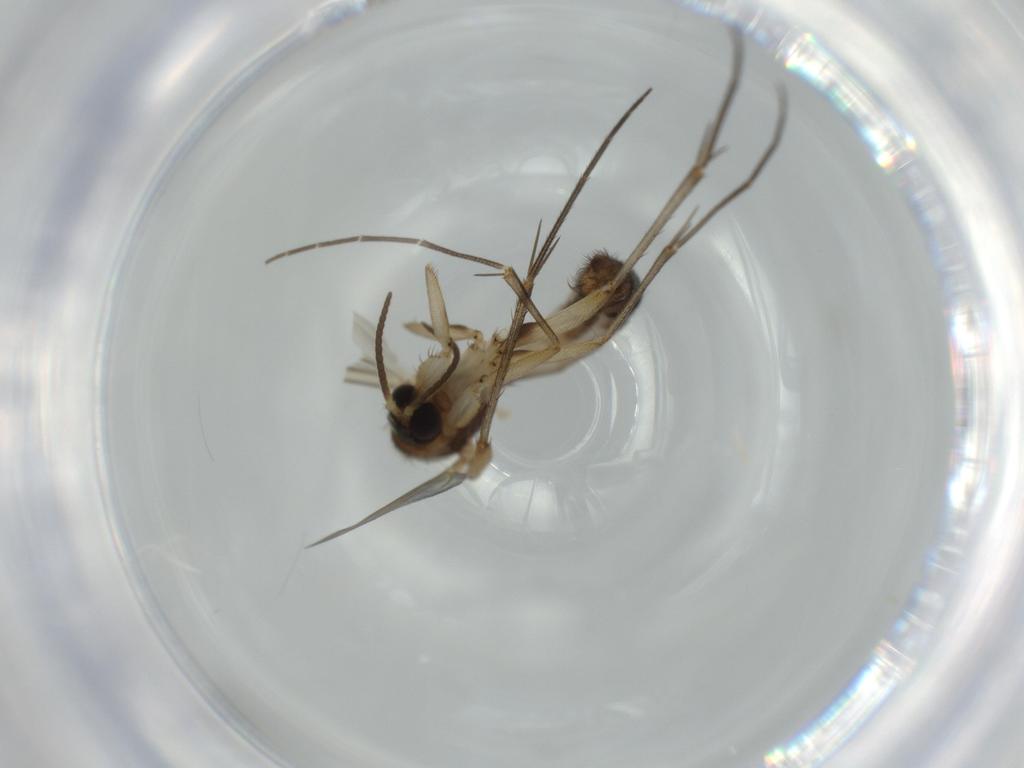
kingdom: Animalia
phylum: Arthropoda
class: Insecta
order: Diptera
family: Cecidomyiidae
